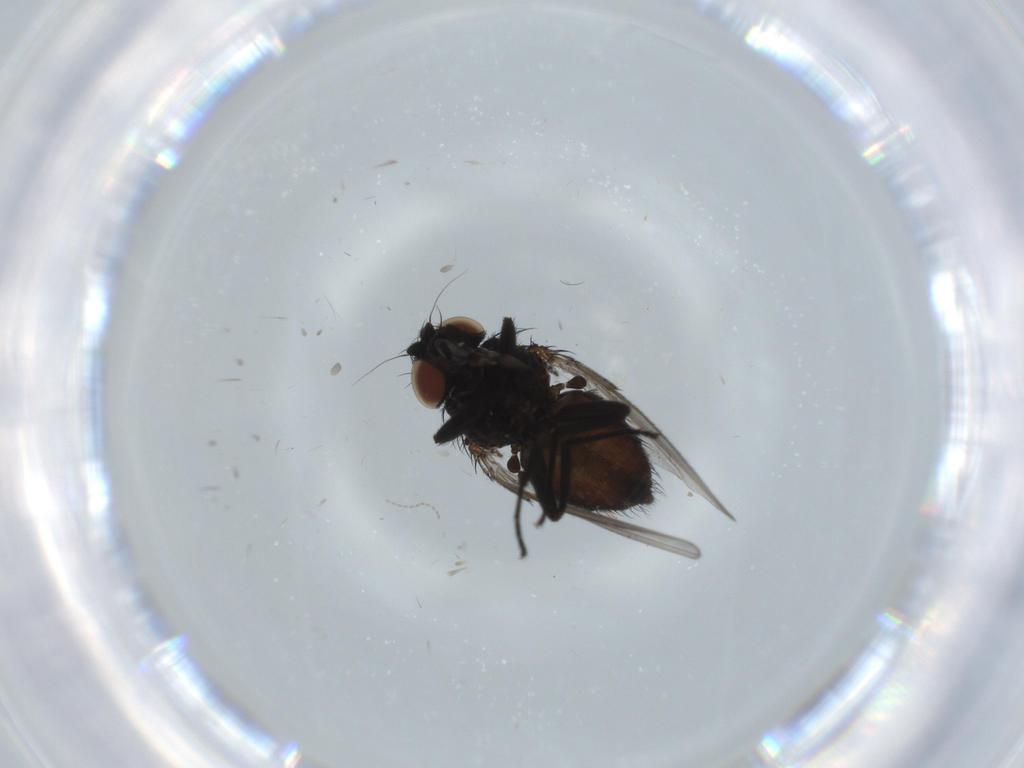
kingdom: Animalia
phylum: Arthropoda
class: Insecta
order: Diptera
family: Milichiidae
